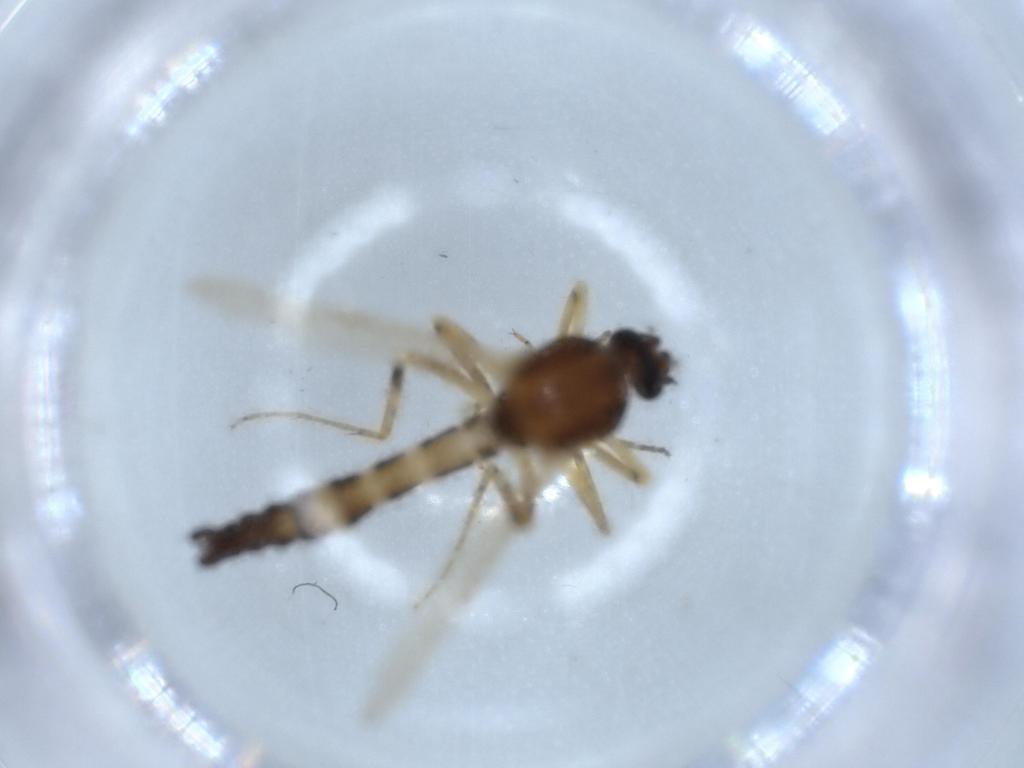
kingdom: Animalia
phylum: Arthropoda
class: Insecta
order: Diptera
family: Ceratopogonidae
